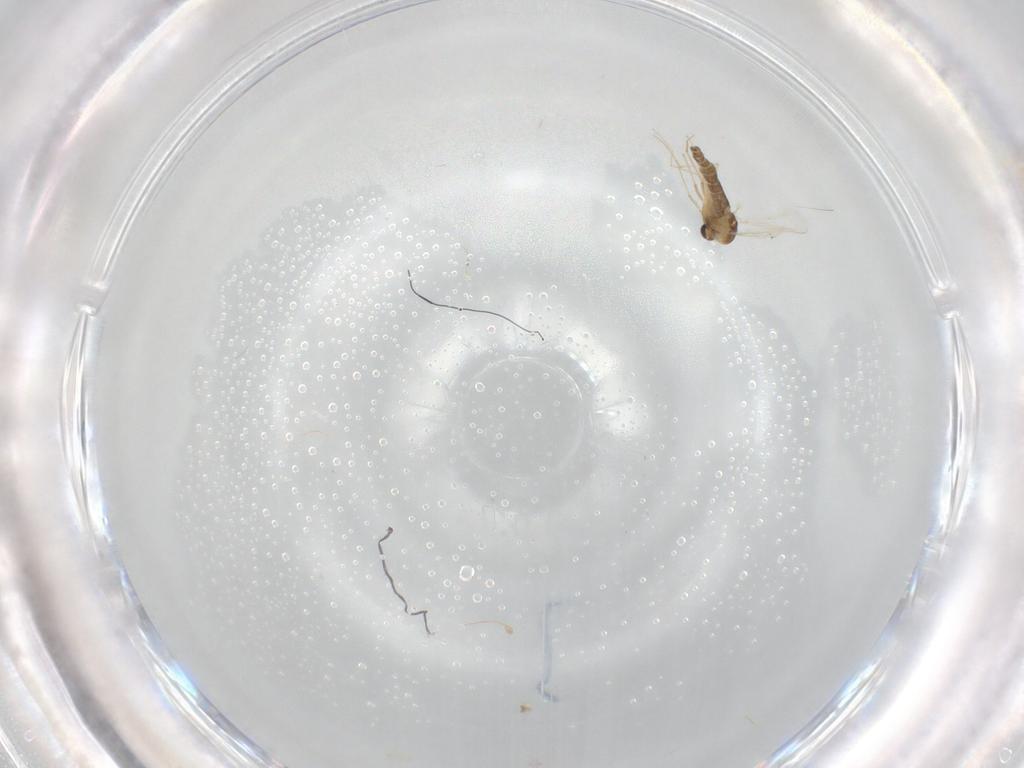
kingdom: Animalia
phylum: Arthropoda
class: Insecta
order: Diptera
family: Chironomidae
